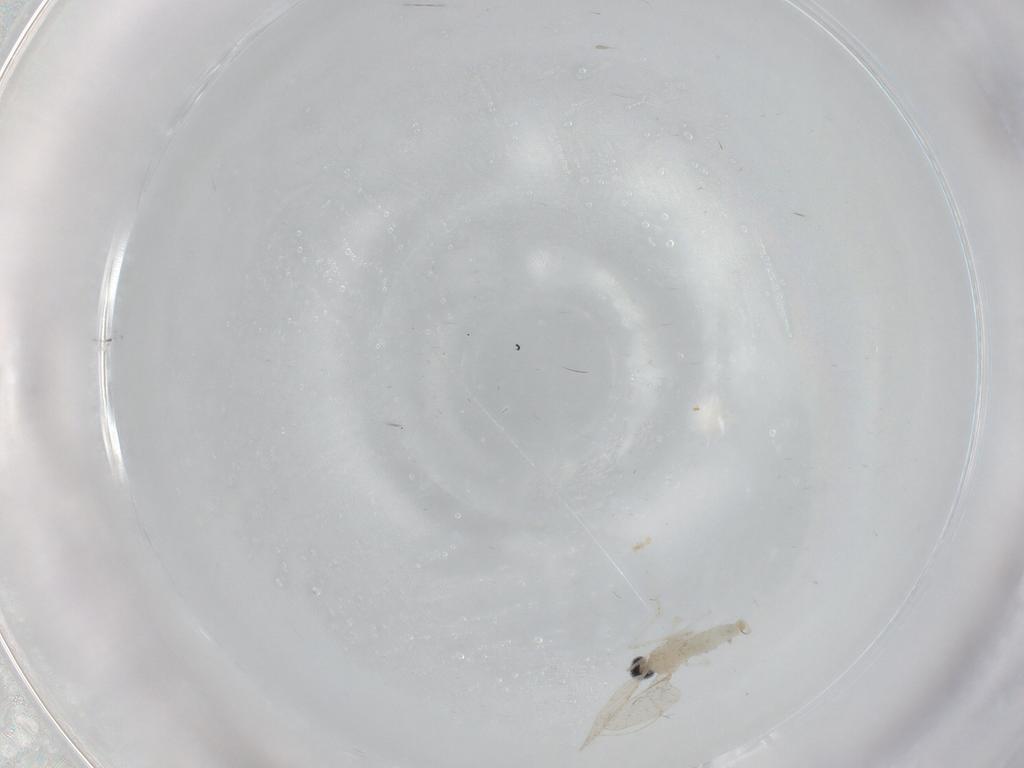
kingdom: Animalia
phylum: Arthropoda
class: Insecta
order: Diptera
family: Cecidomyiidae
